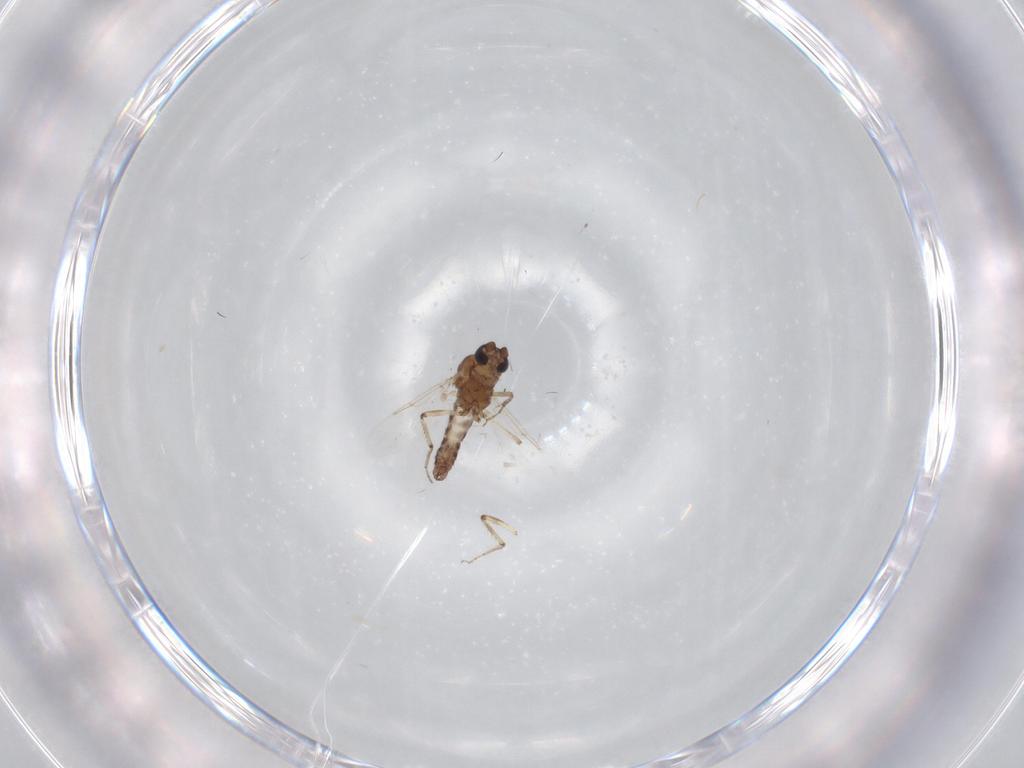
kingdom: Animalia
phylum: Arthropoda
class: Insecta
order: Diptera
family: Ceratopogonidae
